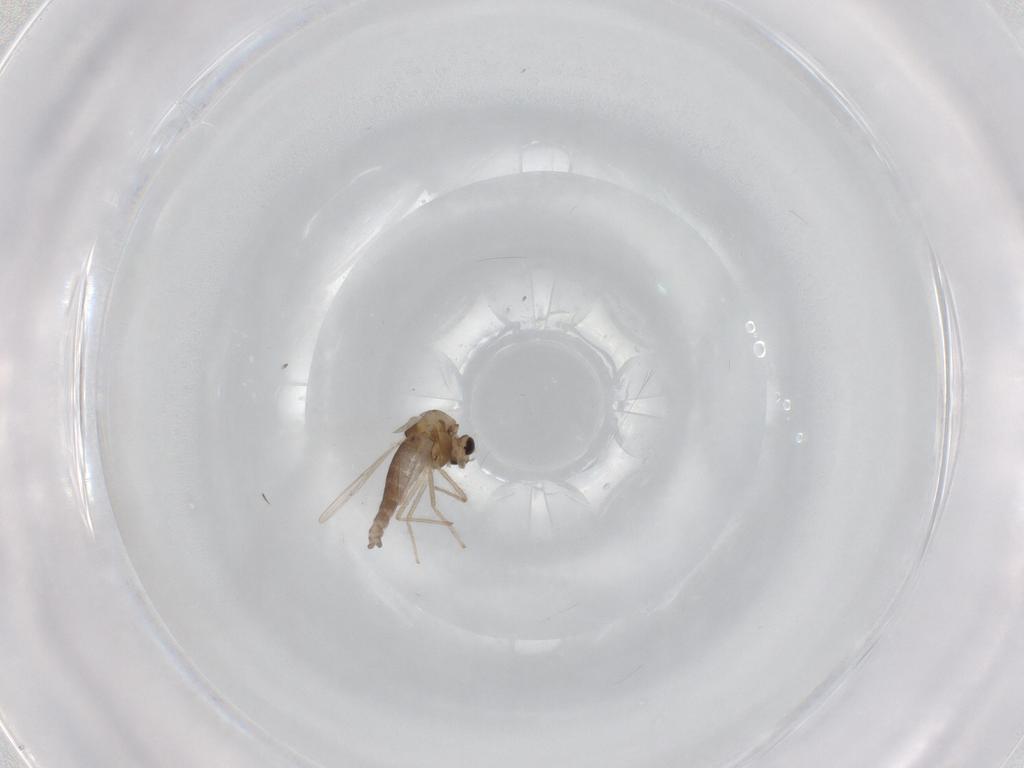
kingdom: Animalia
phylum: Arthropoda
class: Insecta
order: Diptera
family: Chironomidae
